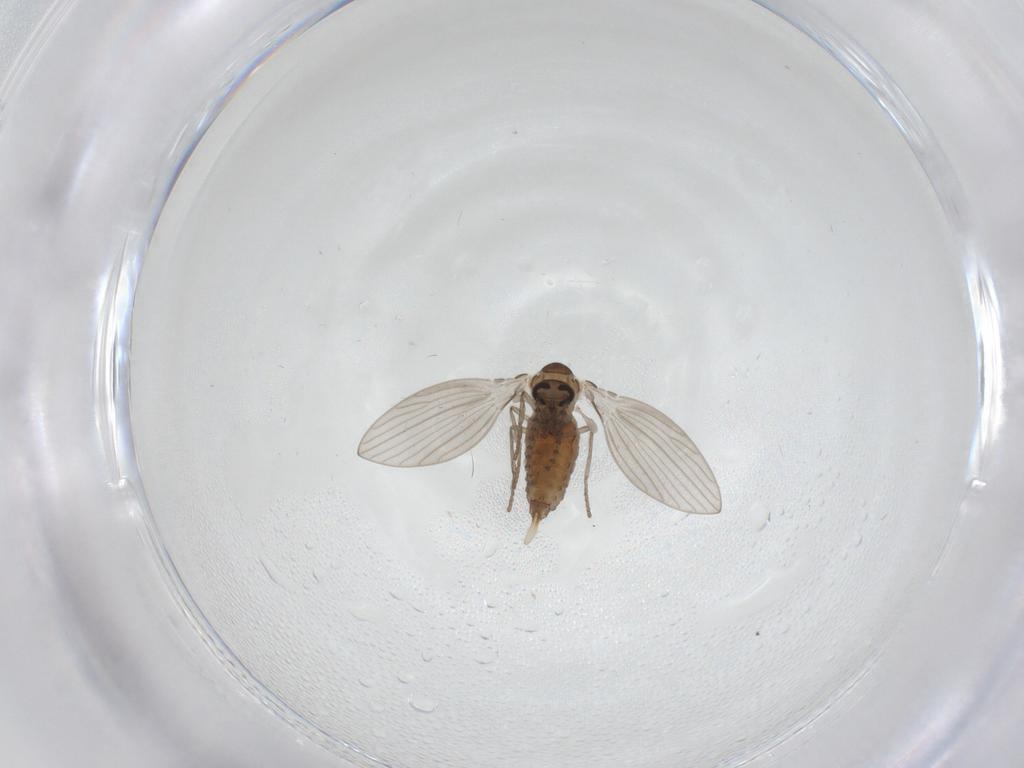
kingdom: Animalia
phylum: Arthropoda
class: Insecta
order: Diptera
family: Psychodidae
